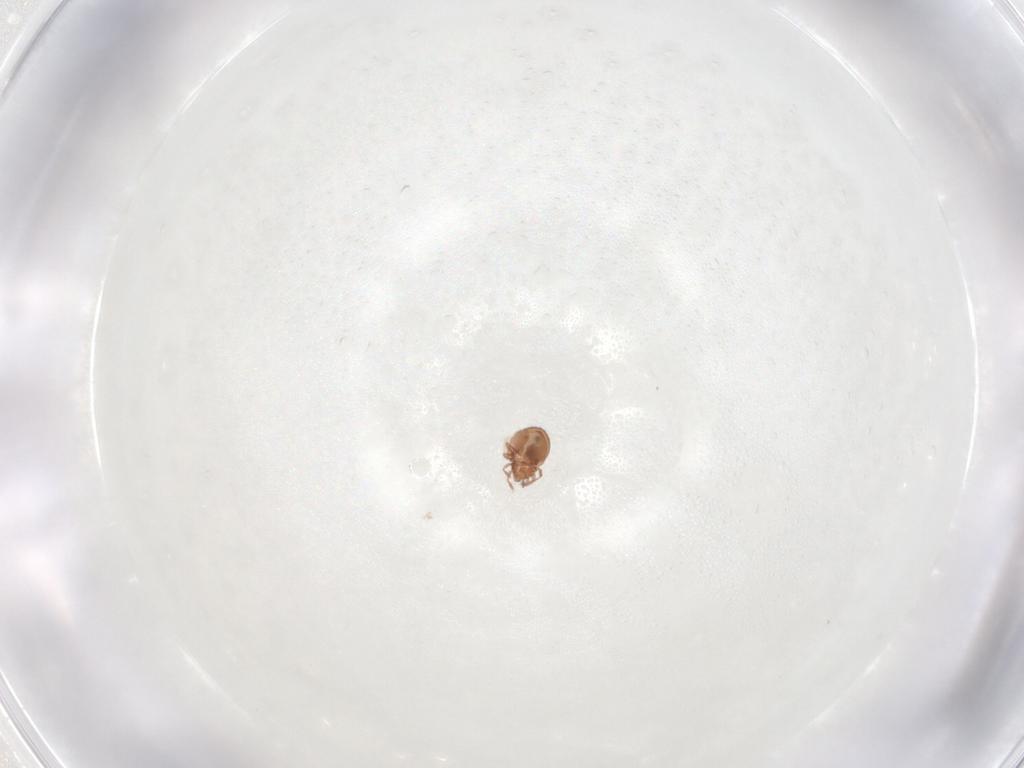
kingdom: Animalia
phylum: Arthropoda
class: Arachnida
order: Sarcoptiformes
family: Oribatulidae
